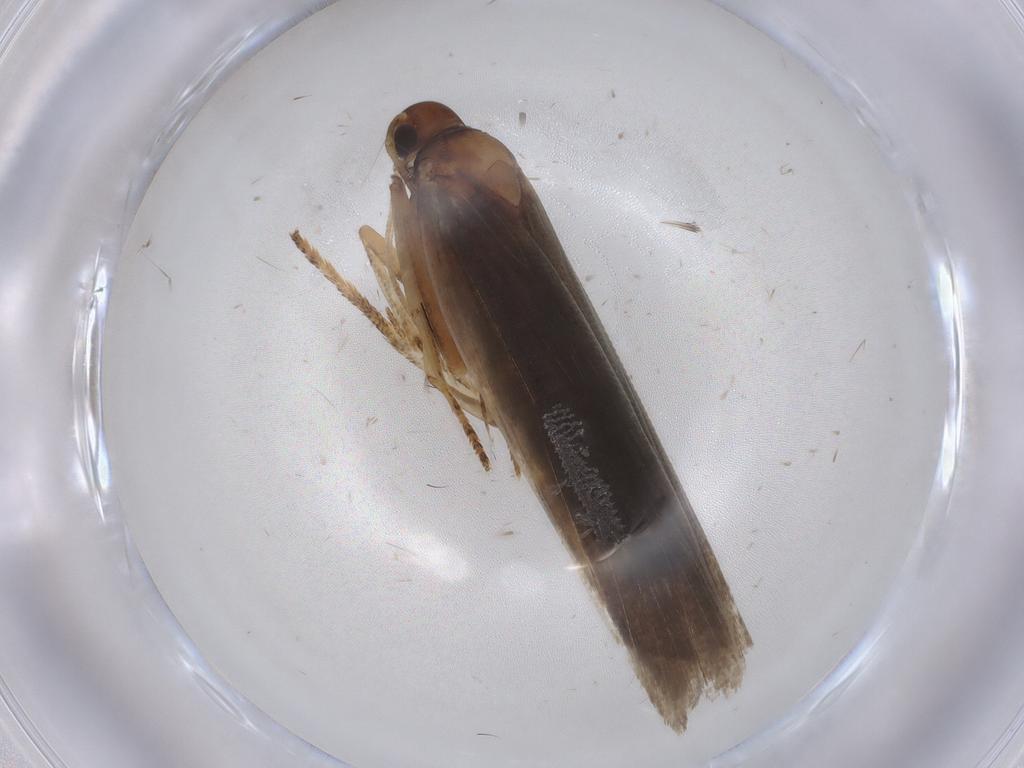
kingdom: Animalia
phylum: Arthropoda
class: Insecta
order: Lepidoptera
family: Gelechiidae
